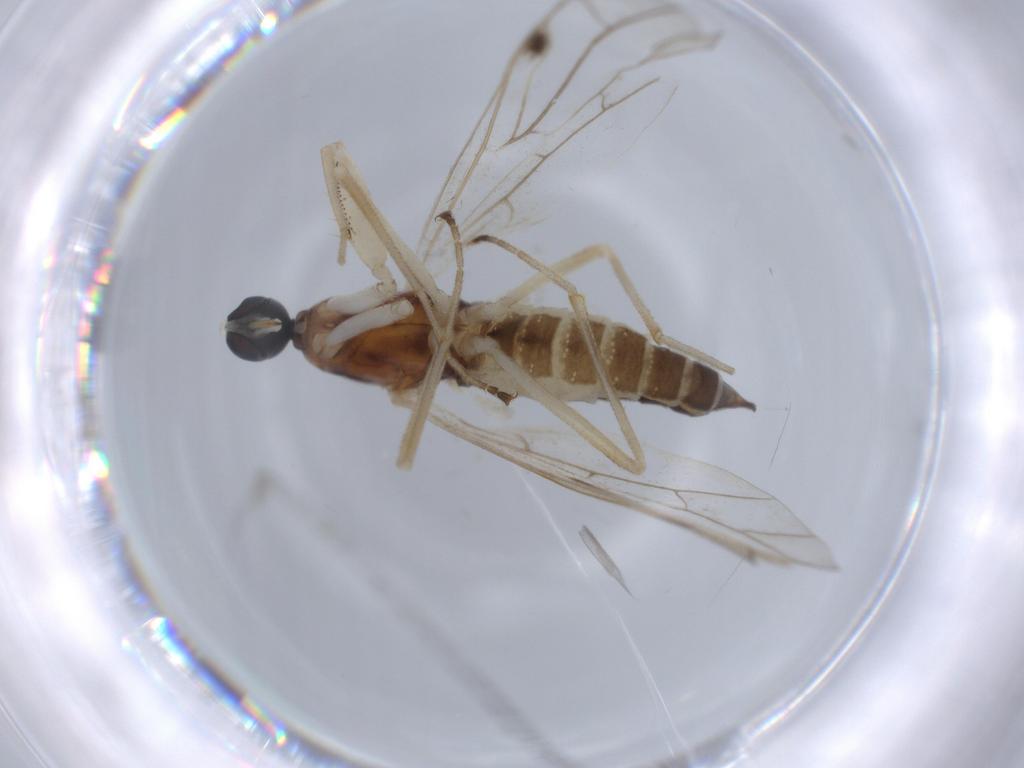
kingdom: Animalia
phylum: Arthropoda
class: Insecta
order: Diptera
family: Empididae
